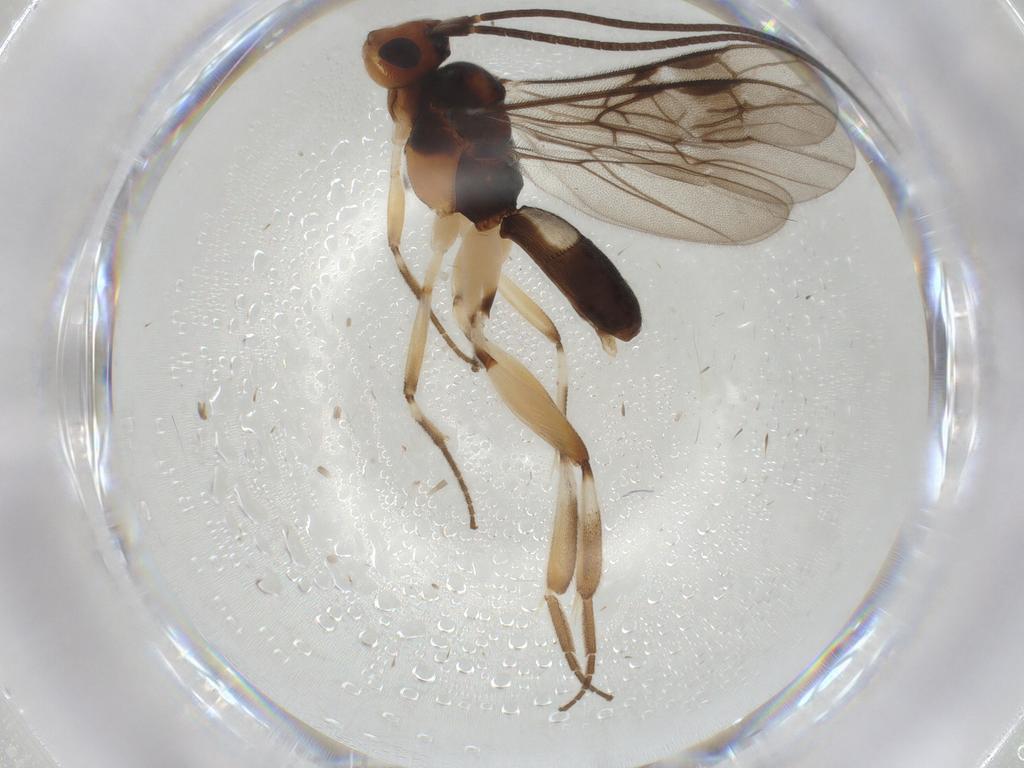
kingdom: Animalia
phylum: Arthropoda
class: Insecta
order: Hymenoptera
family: Braconidae
